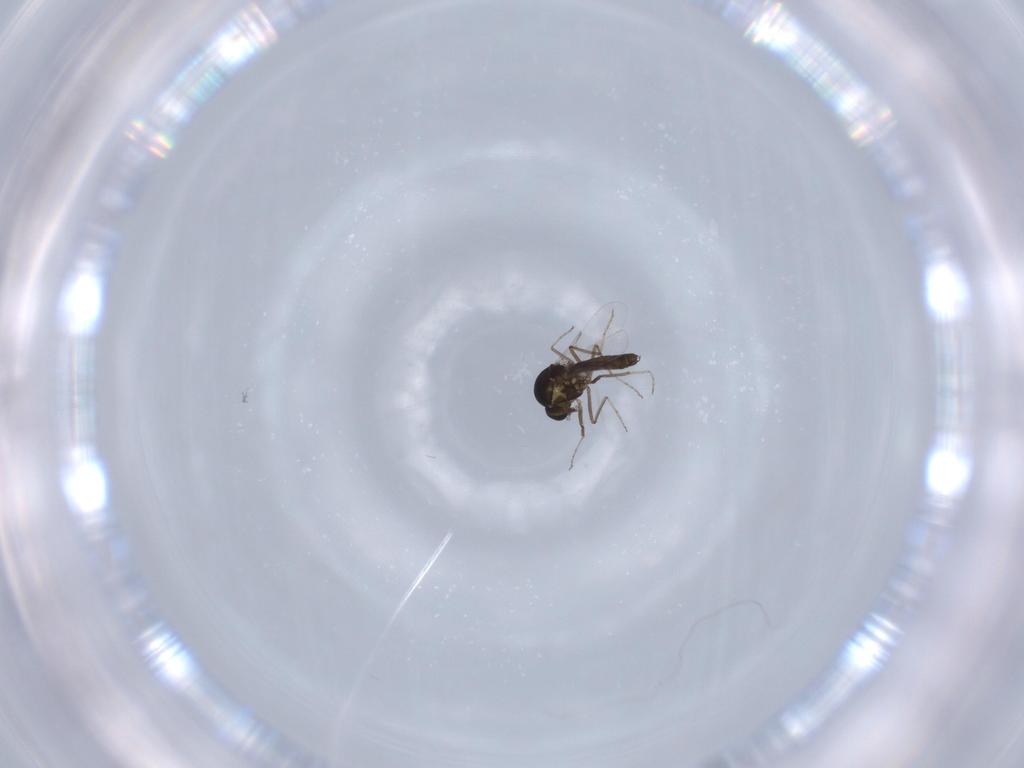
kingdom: Animalia
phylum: Arthropoda
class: Insecta
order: Diptera
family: Ceratopogonidae
